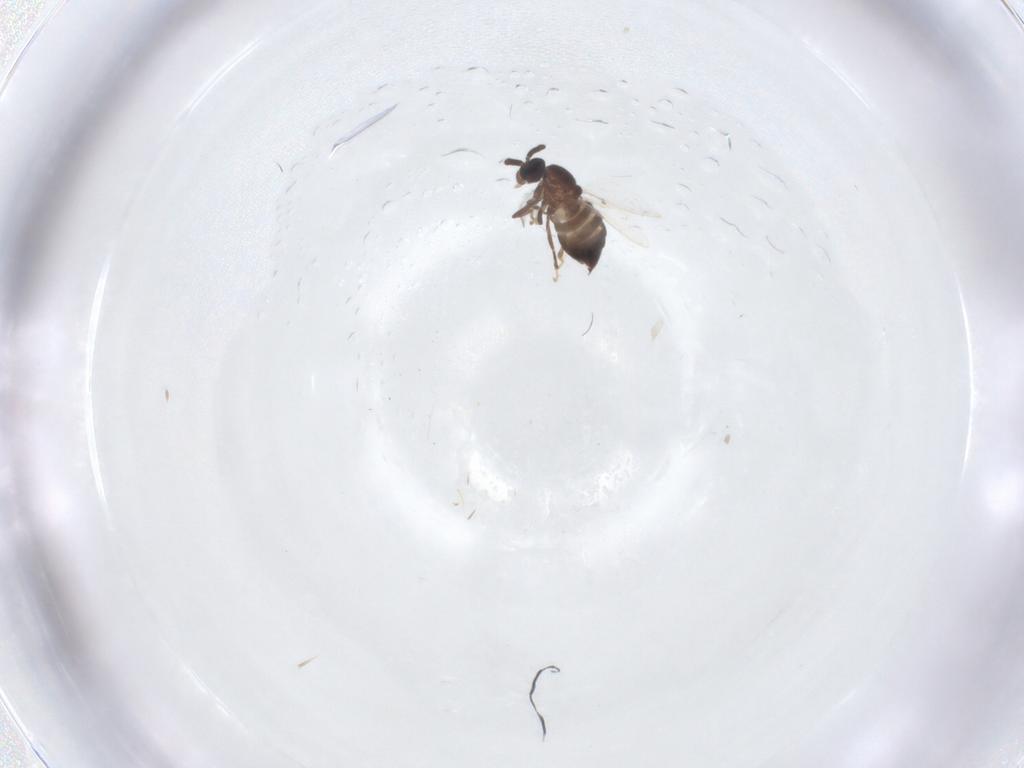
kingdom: Animalia
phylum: Arthropoda
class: Insecta
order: Diptera
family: Scatopsidae
